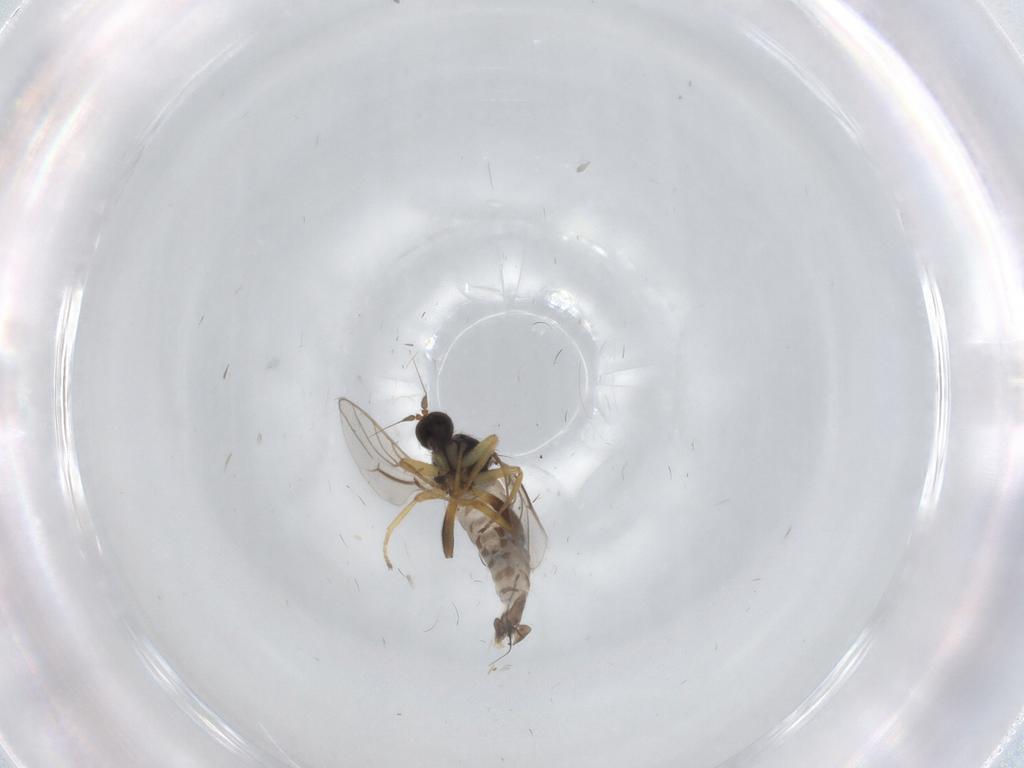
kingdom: Animalia
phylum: Arthropoda
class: Insecta
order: Diptera
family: Hybotidae
